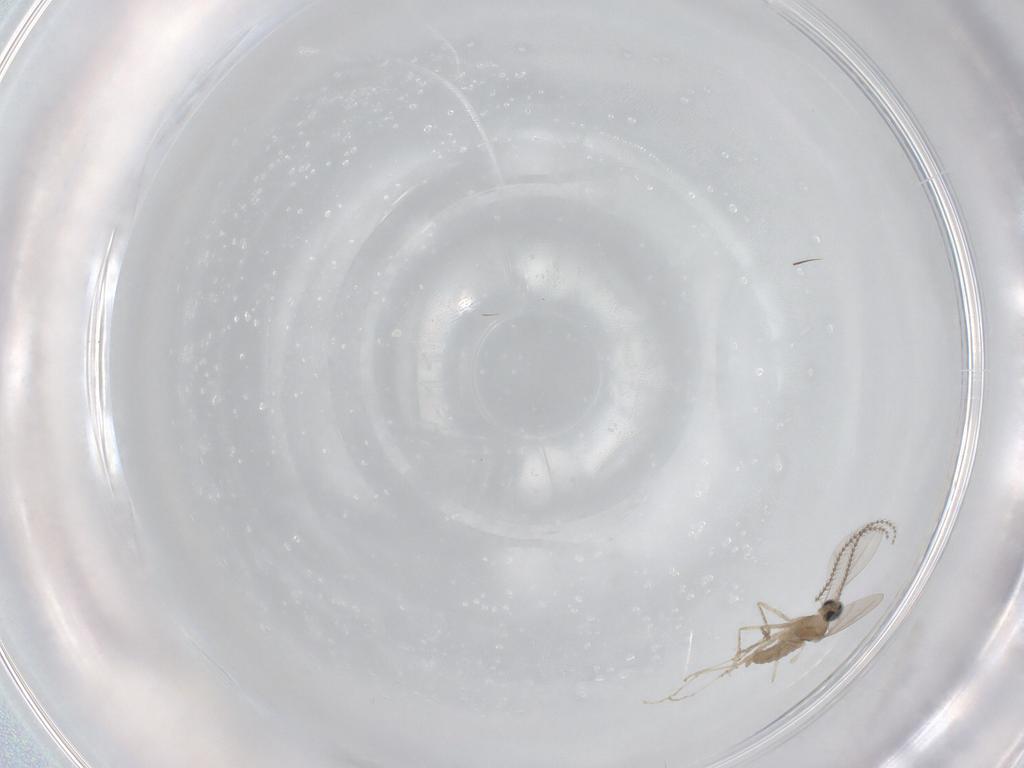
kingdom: Animalia
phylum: Arthropoda
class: Insecta
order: Diptera
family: Cecidomyiidae
